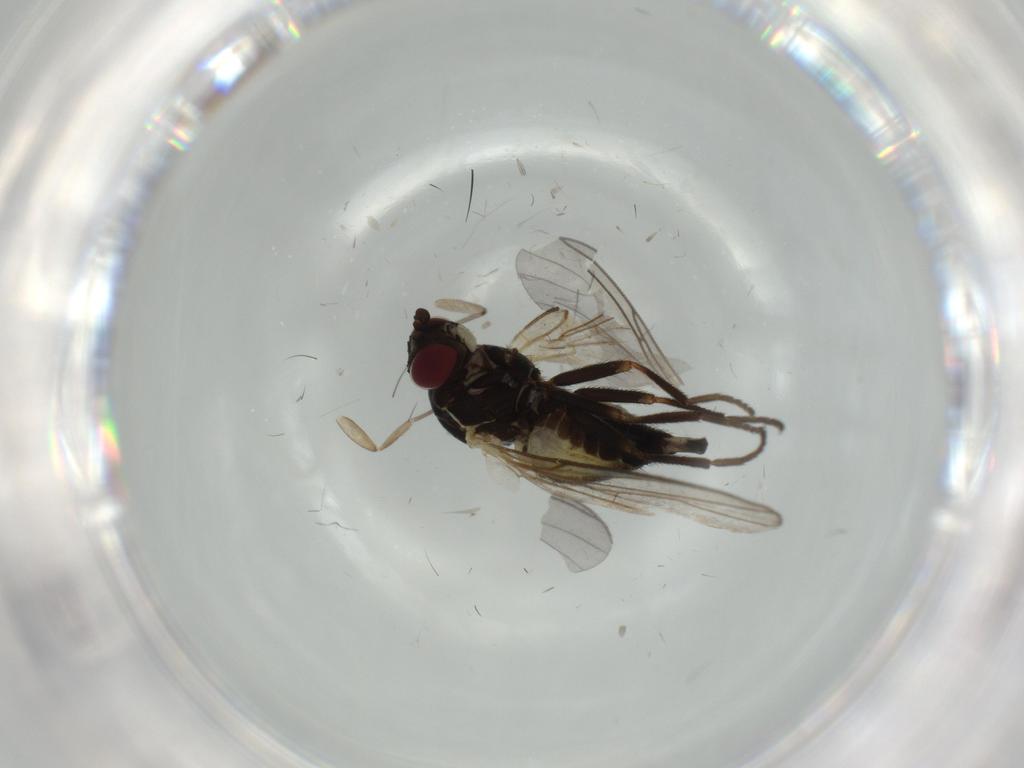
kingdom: Animalia
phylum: Arthropoda
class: Insecta
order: Diptera
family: Sciaridae
